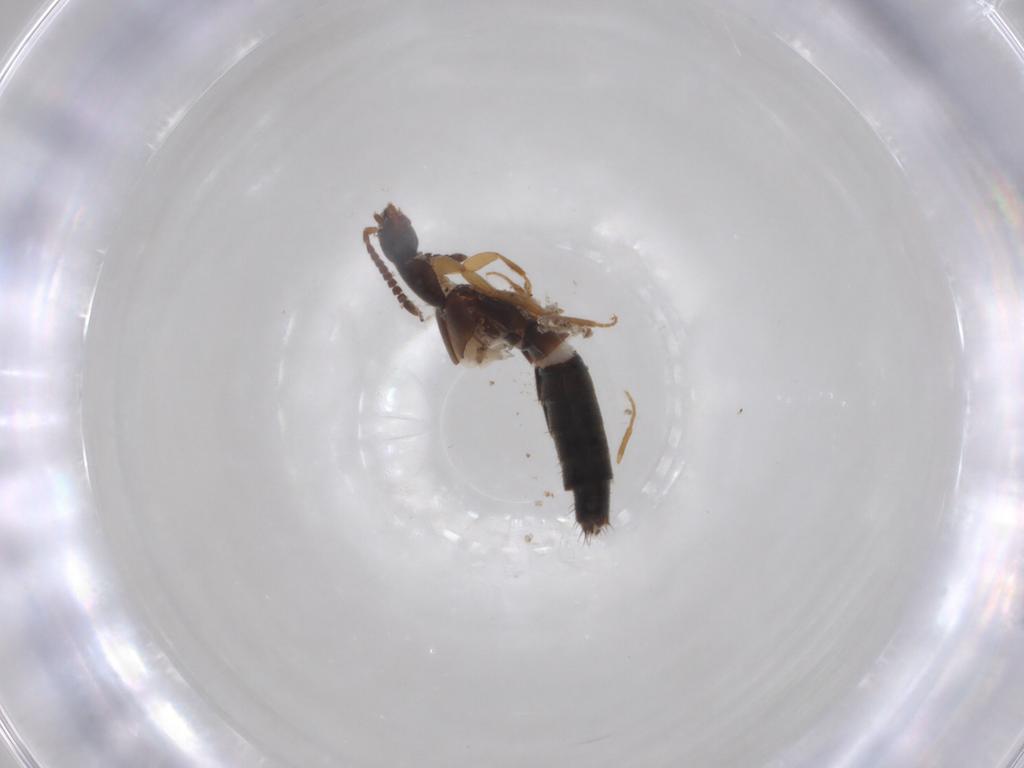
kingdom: Animalia
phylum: Arthropoda
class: Insecta
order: Coleoptera
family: Staphylinidae
